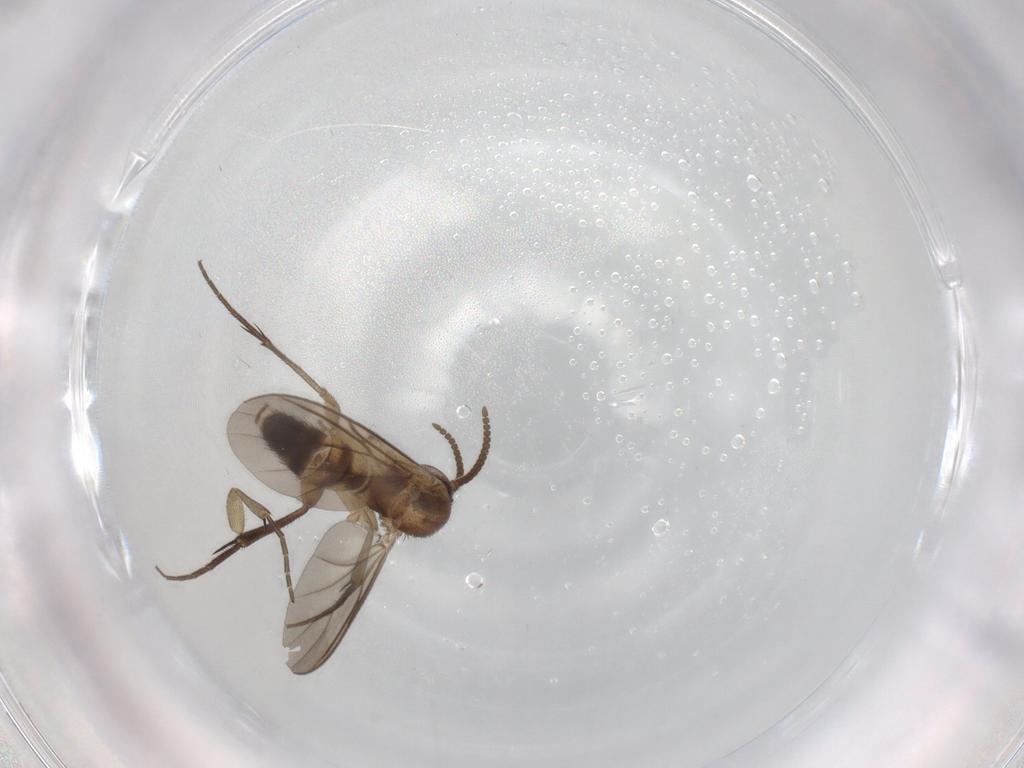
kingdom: Animalia
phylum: Arthropoda
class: Insecta
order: Diptera
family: Mycetophilidae
